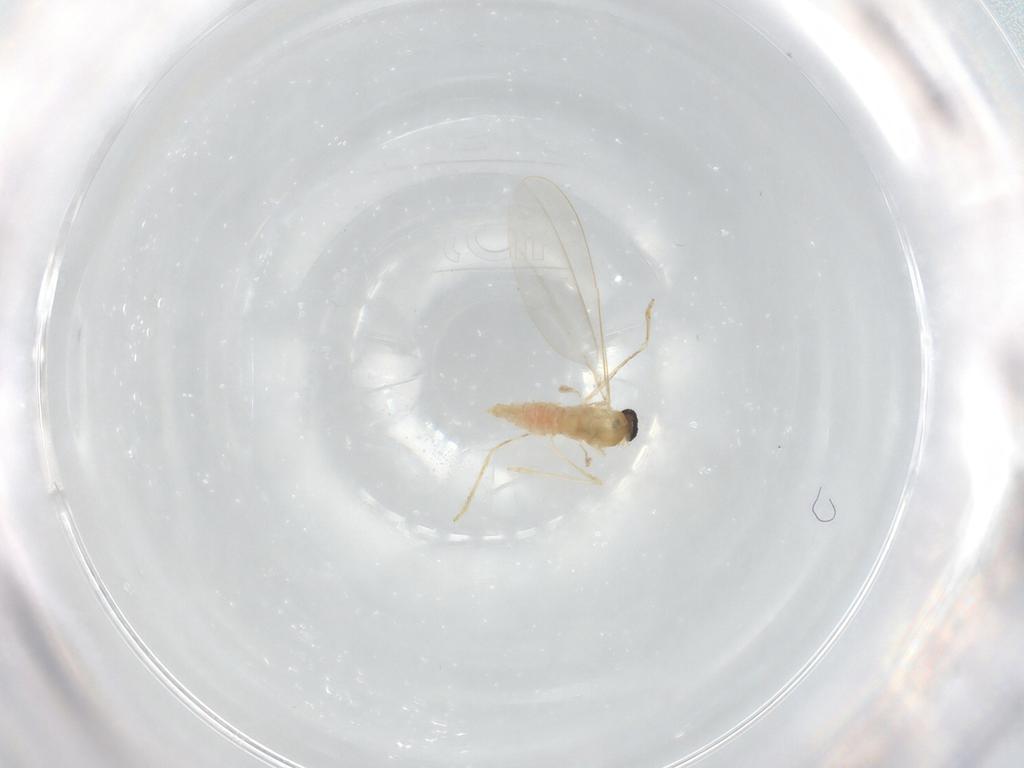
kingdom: Animalia
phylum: Arthropoda
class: Insecta
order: Diptera
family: Cecidomyiidae
